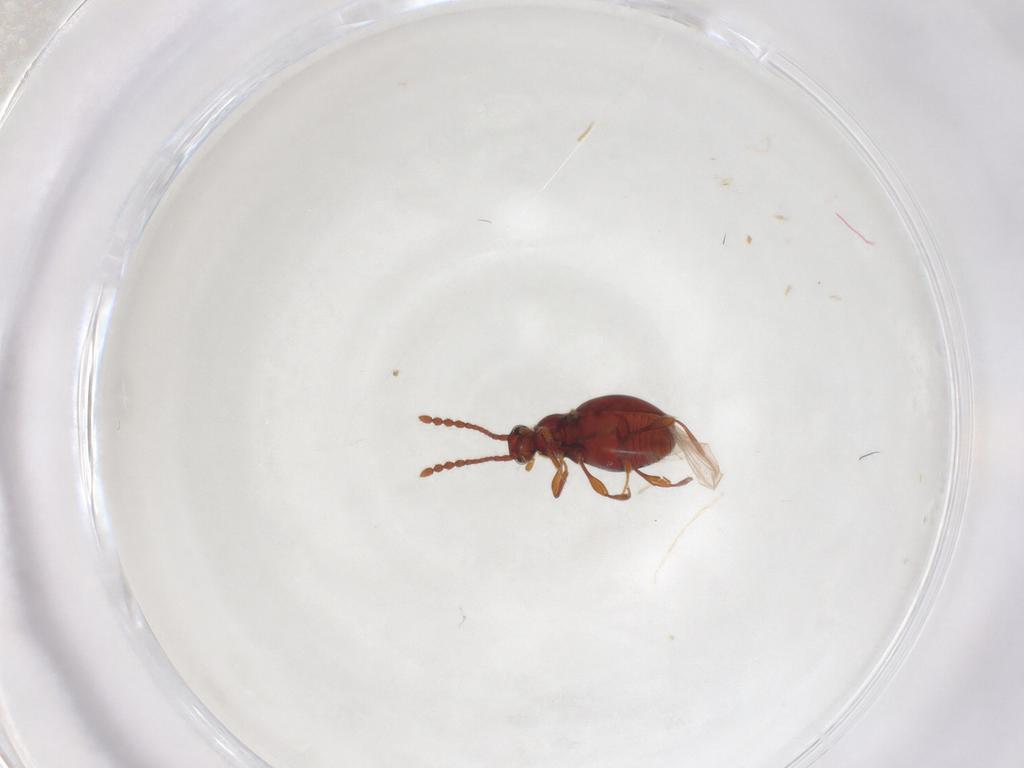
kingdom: Animalia
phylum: Arthropoda
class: Insecta
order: Coleoptera
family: Staphylinidae
